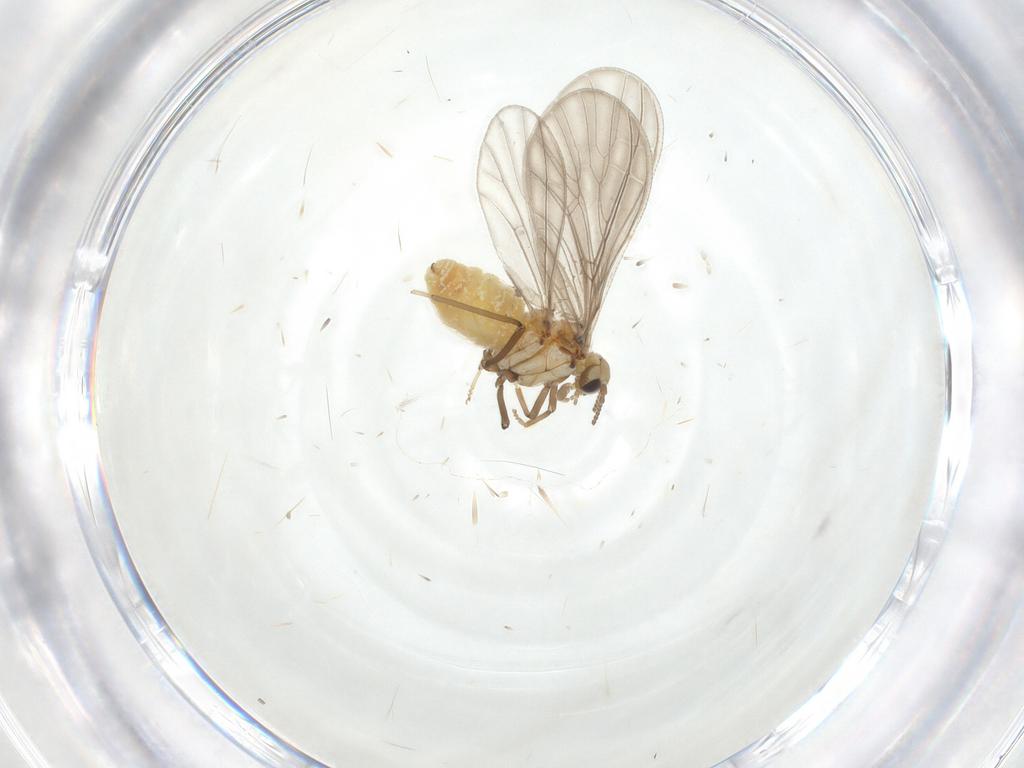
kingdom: Animalia
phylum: Arthropoda
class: Insecta
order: Neuroptera
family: Coniopterygidae
